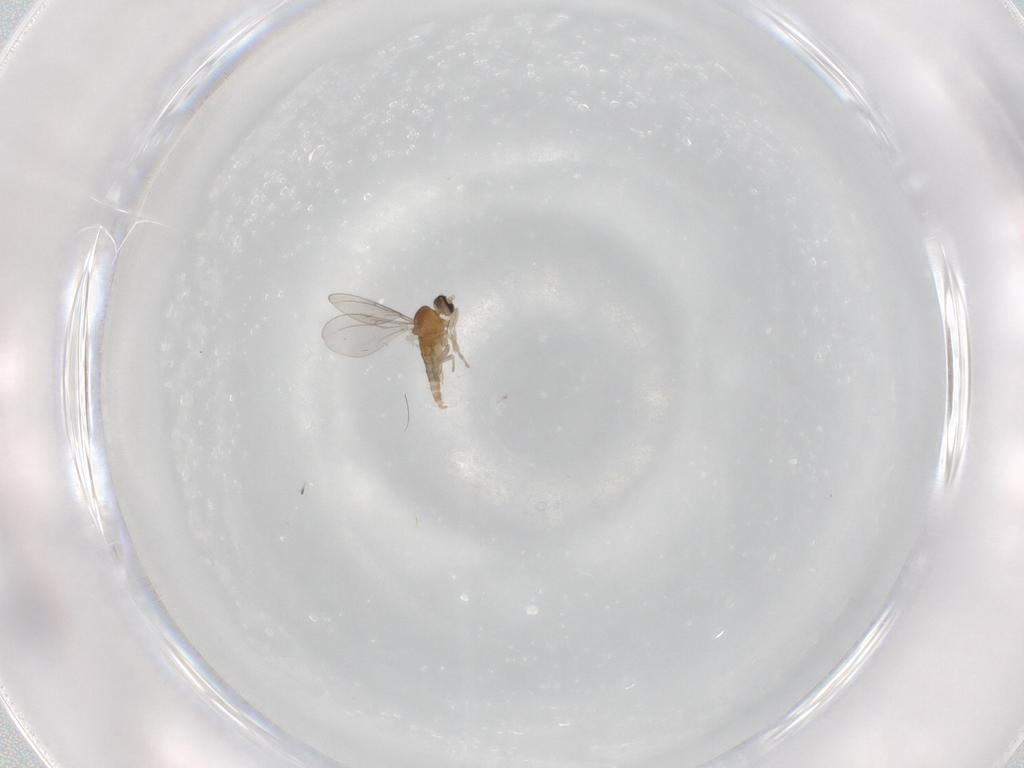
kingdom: Animalia
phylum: Arthropoda
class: Insecta
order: Diptera
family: Cecidomyiidae
